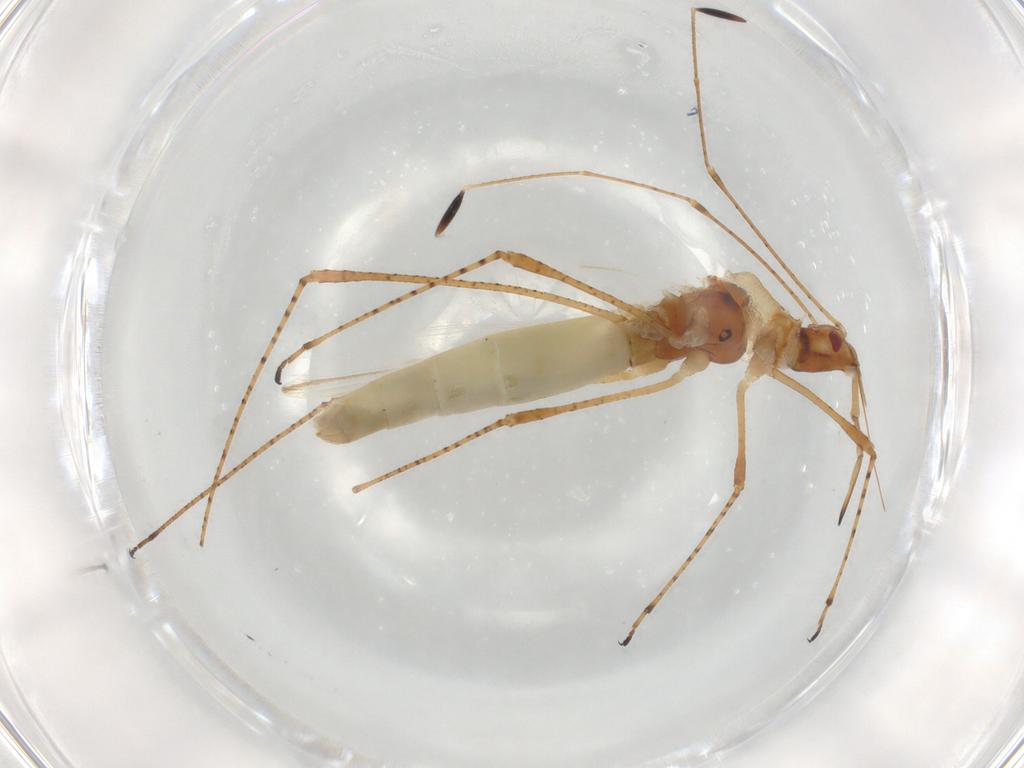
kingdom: Animalia
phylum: Arthropoda
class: Insecta
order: Hemiptera
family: Cymidae
